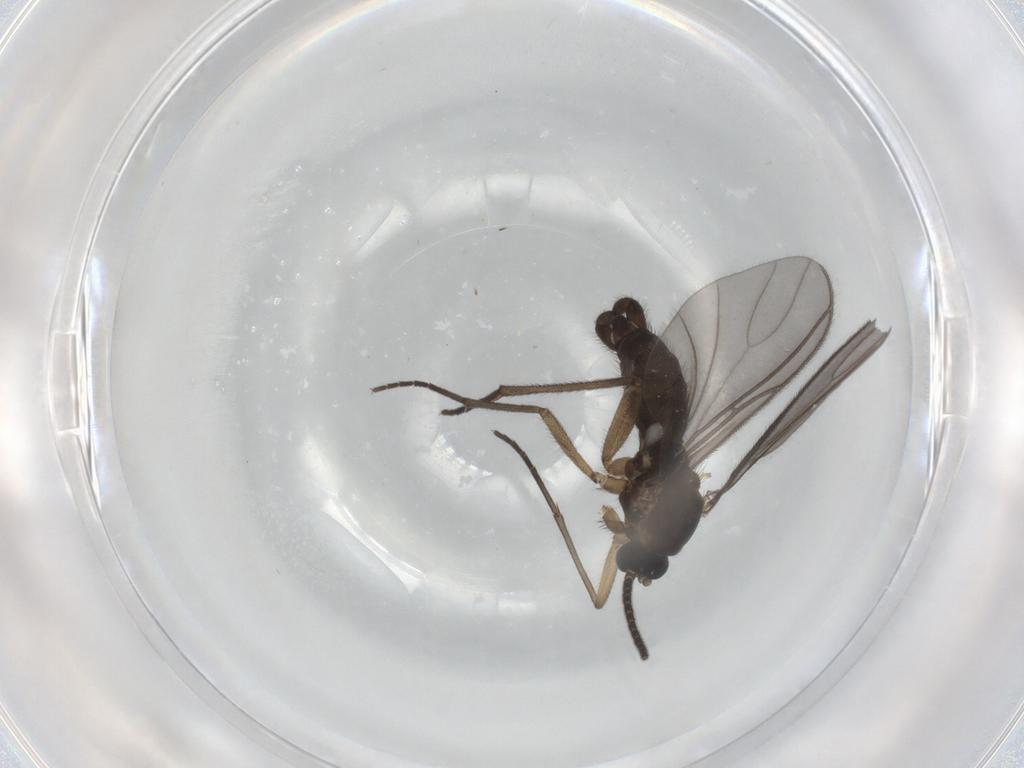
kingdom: Animalia
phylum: Arthropoda
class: Insecta
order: Diptera
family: Sciaridae
